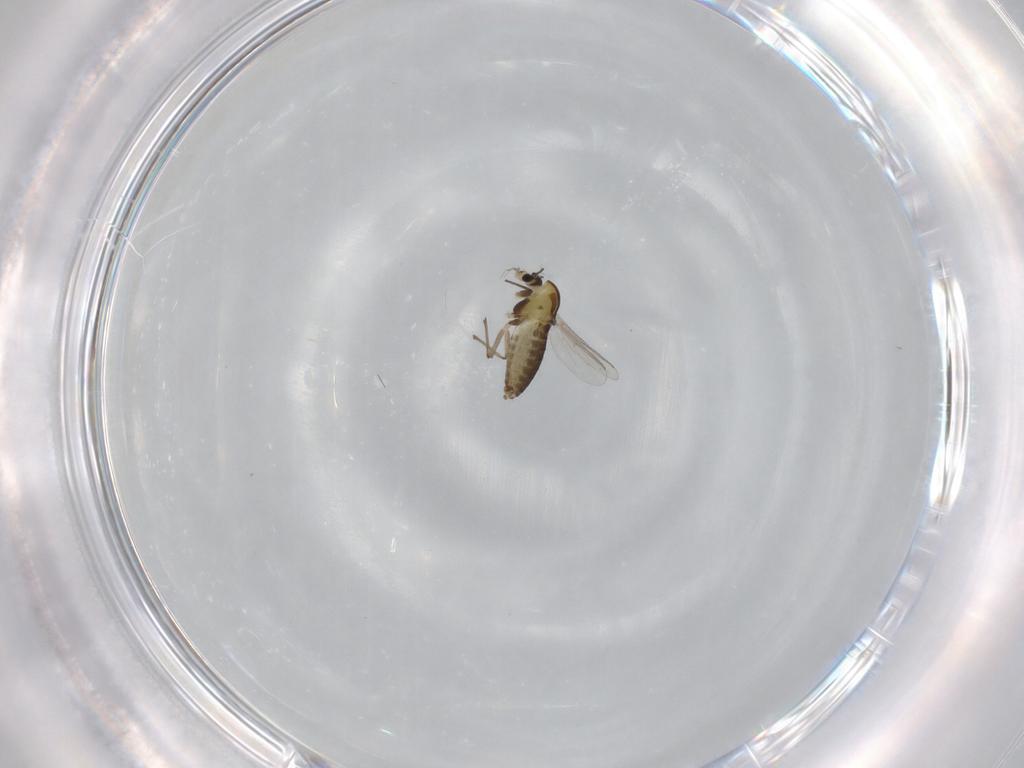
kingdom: Animalia
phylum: Arthropoda
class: Insecta
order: Diptera
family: Chironomidae
